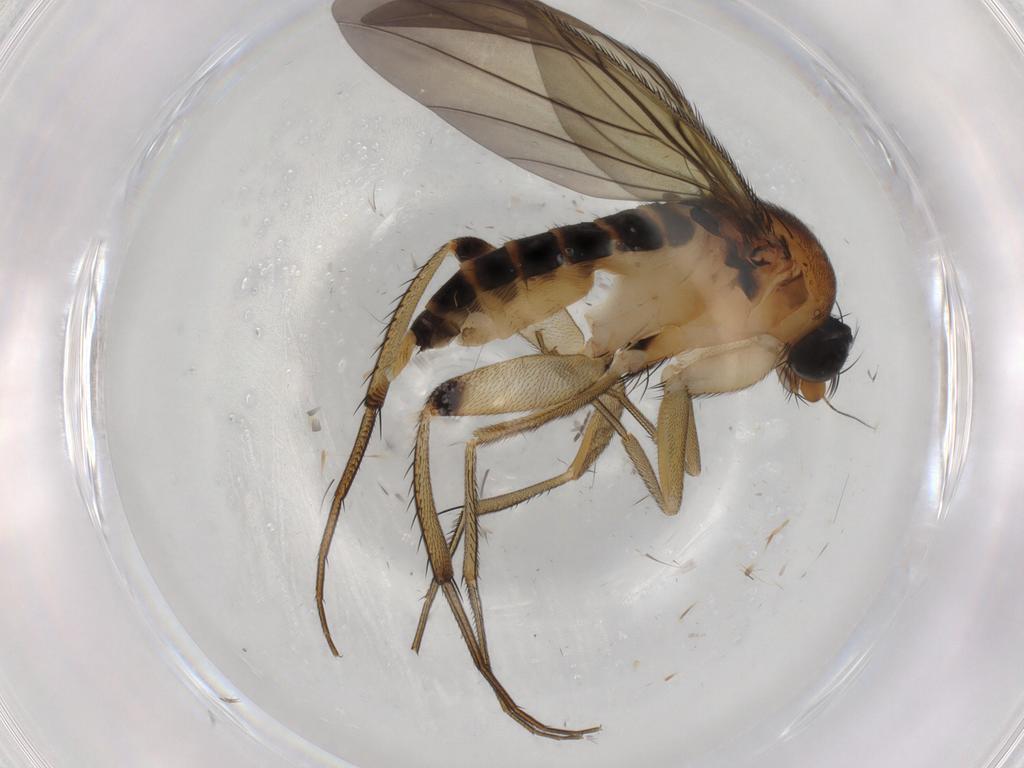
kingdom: Animalia
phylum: Arthropoda
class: Insecta
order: Diptera
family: Phoridae
